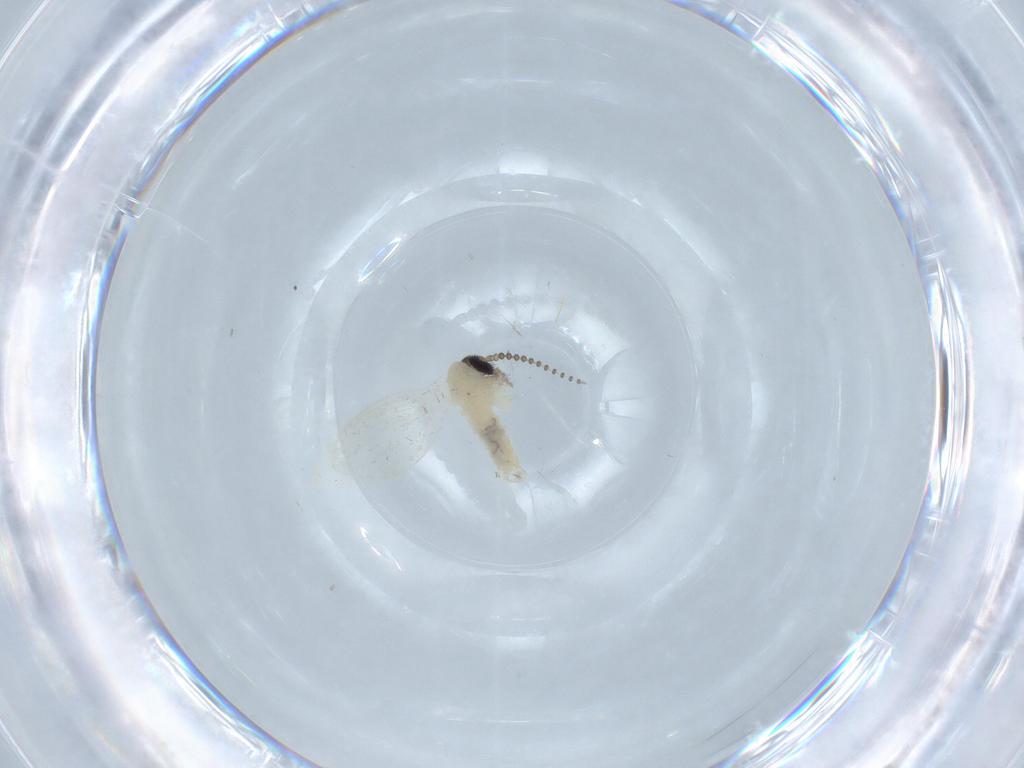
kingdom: Animalia
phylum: Arthropoda
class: Insecta
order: Diptera
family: Psychodidae
